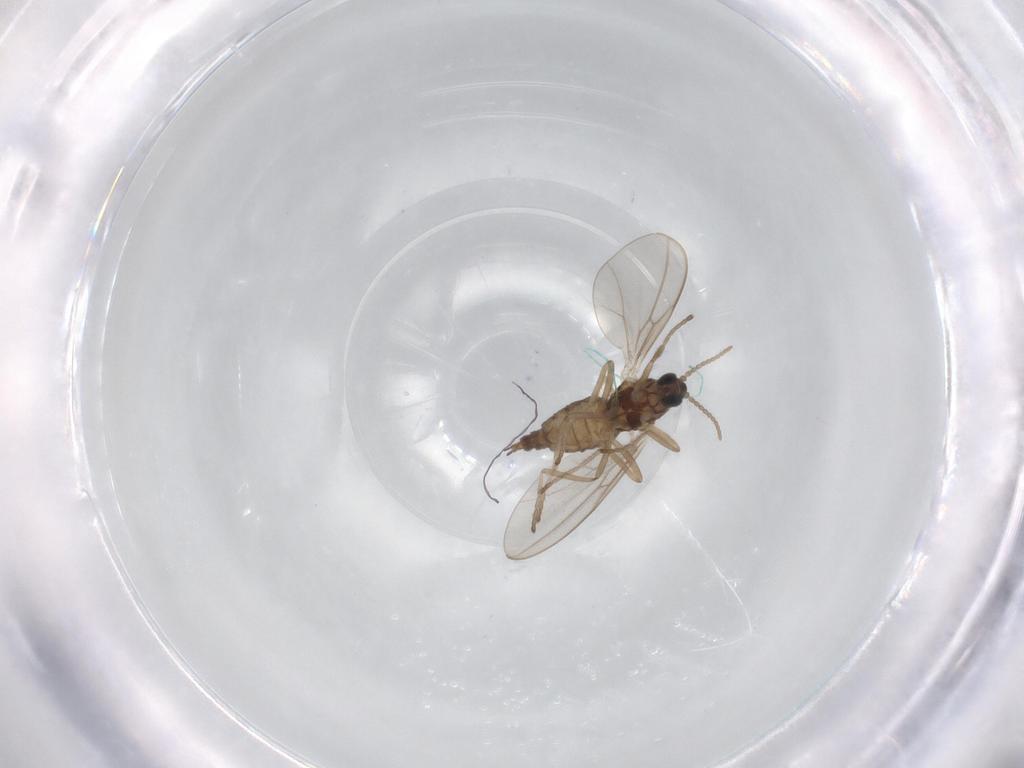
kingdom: Animalia
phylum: Arthropoda
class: Insecta
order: Diptera
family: Cecidomyiidae
